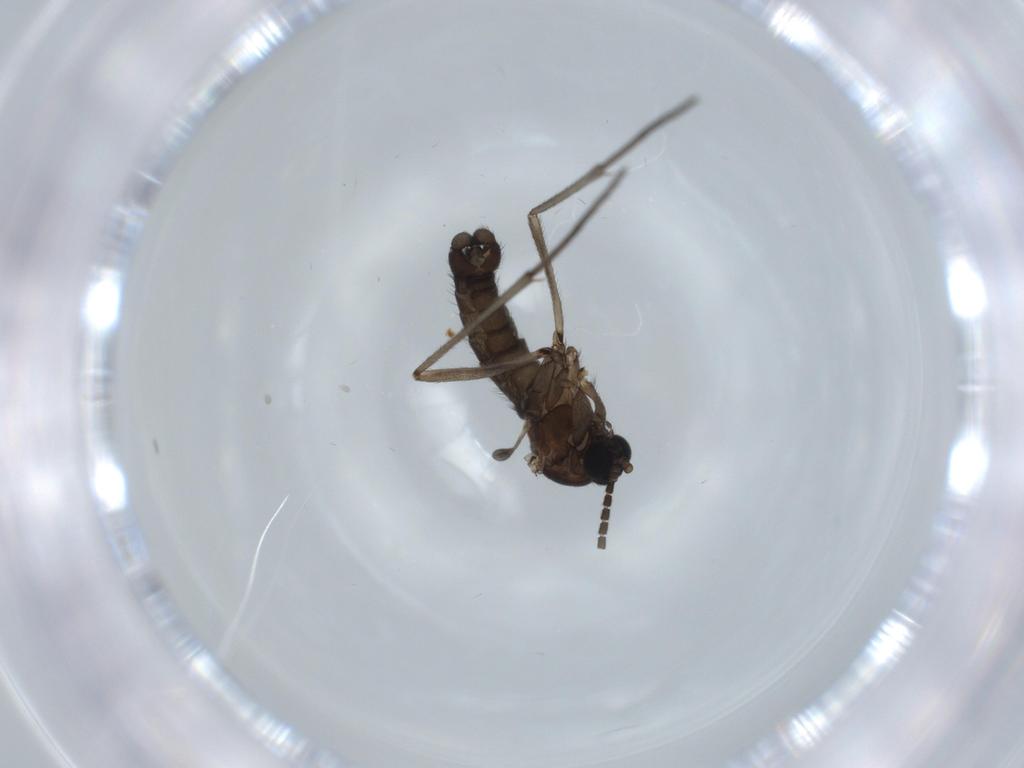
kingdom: Animalia
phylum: Arthropoda
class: Insecta
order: Diptera
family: Sciaridae
